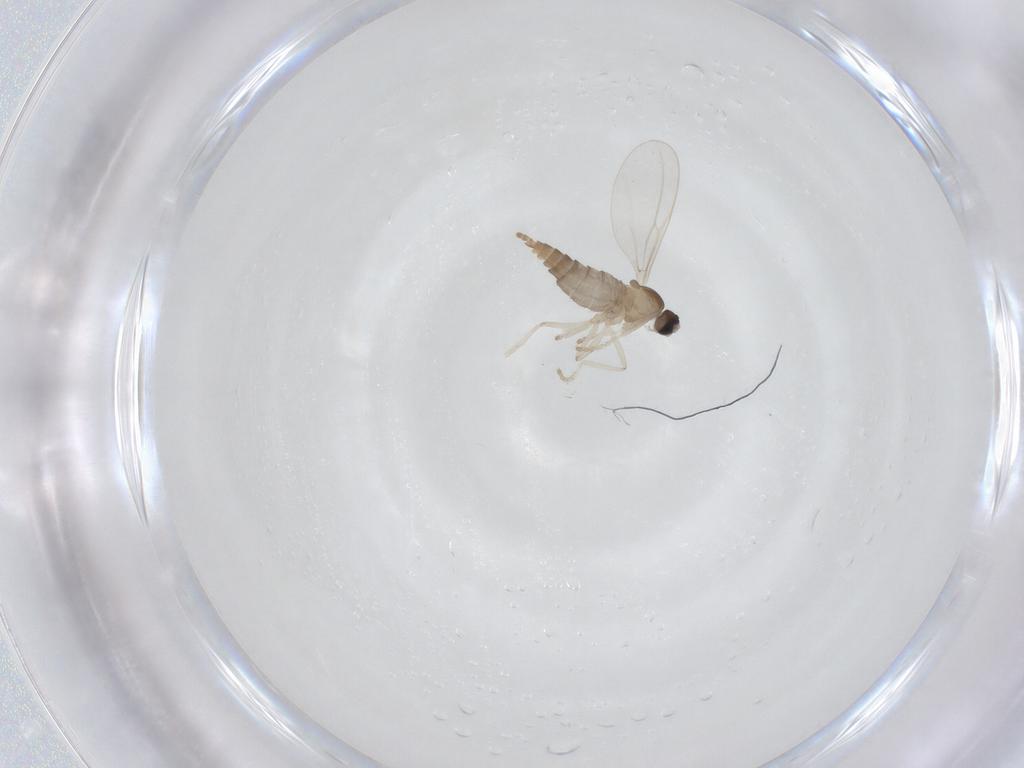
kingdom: Animalia
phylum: Arthropoda
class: Insecta
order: Diptera
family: Cecidomyiidae
